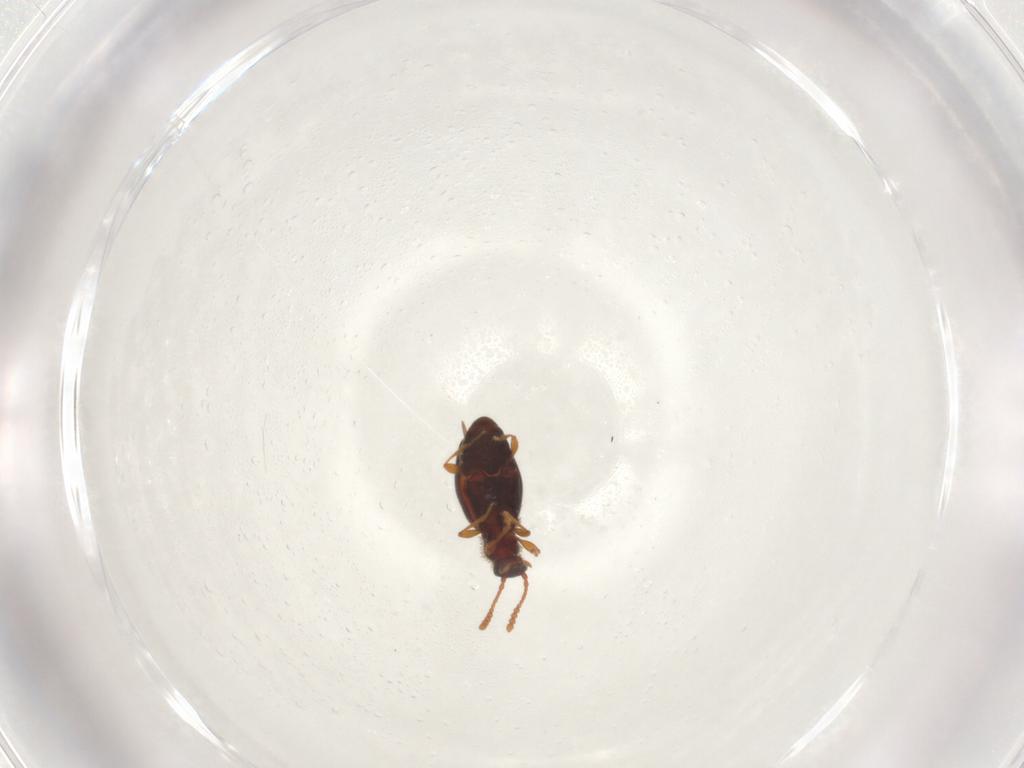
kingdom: Animalia
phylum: Arthropoda
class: Collembola
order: Entomobryomorpha
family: Entomobryidae
